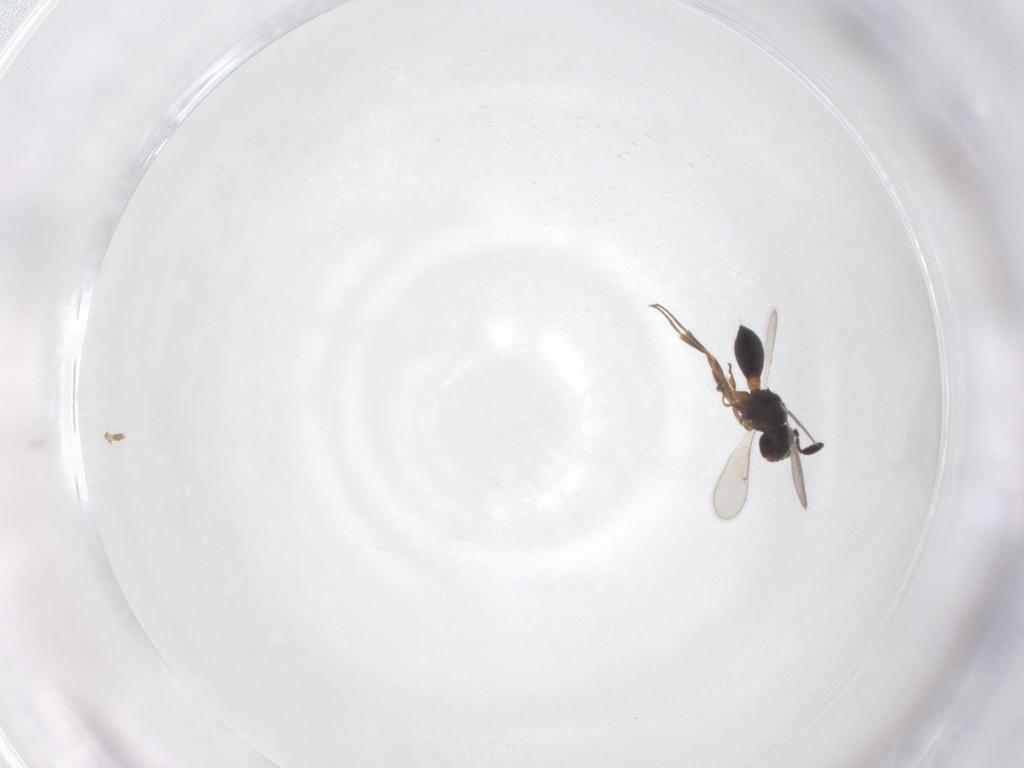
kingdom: Animalia
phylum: Arthropoda
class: Insecta
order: Hymenoptera
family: Scelionidae
